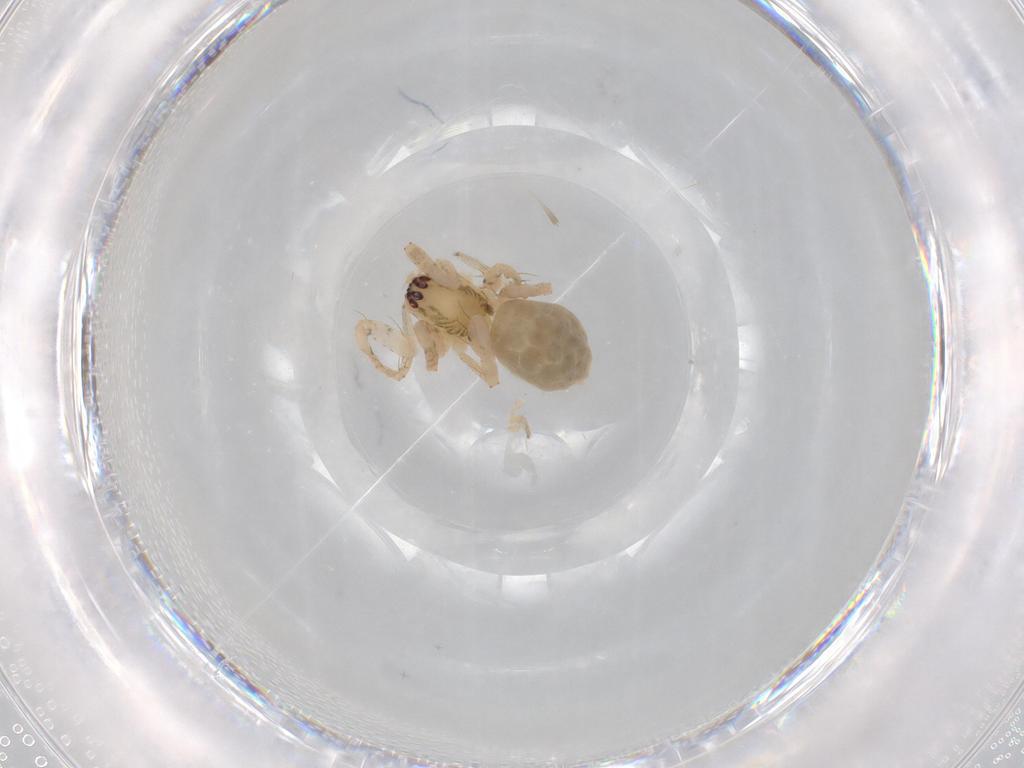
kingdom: Animalia
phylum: Arthropoda
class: Arachnida
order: Araneae
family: Anyphaenidae
